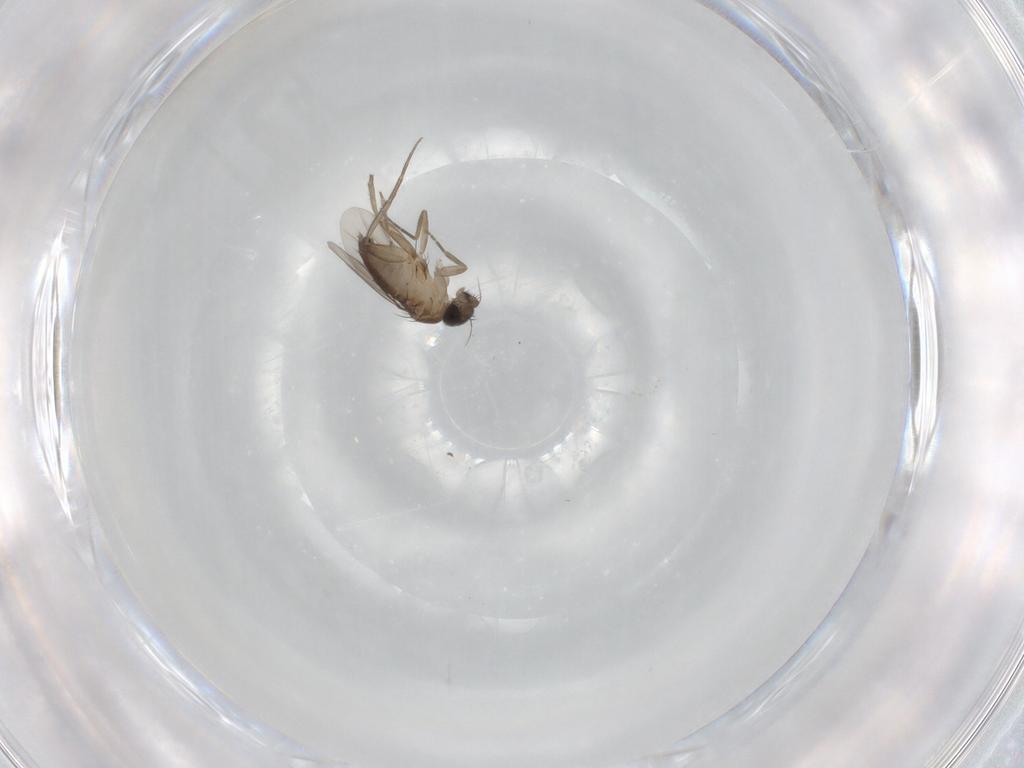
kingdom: Animalia
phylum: Arthropoda
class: Insecta
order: Diptera
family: Phoridae
